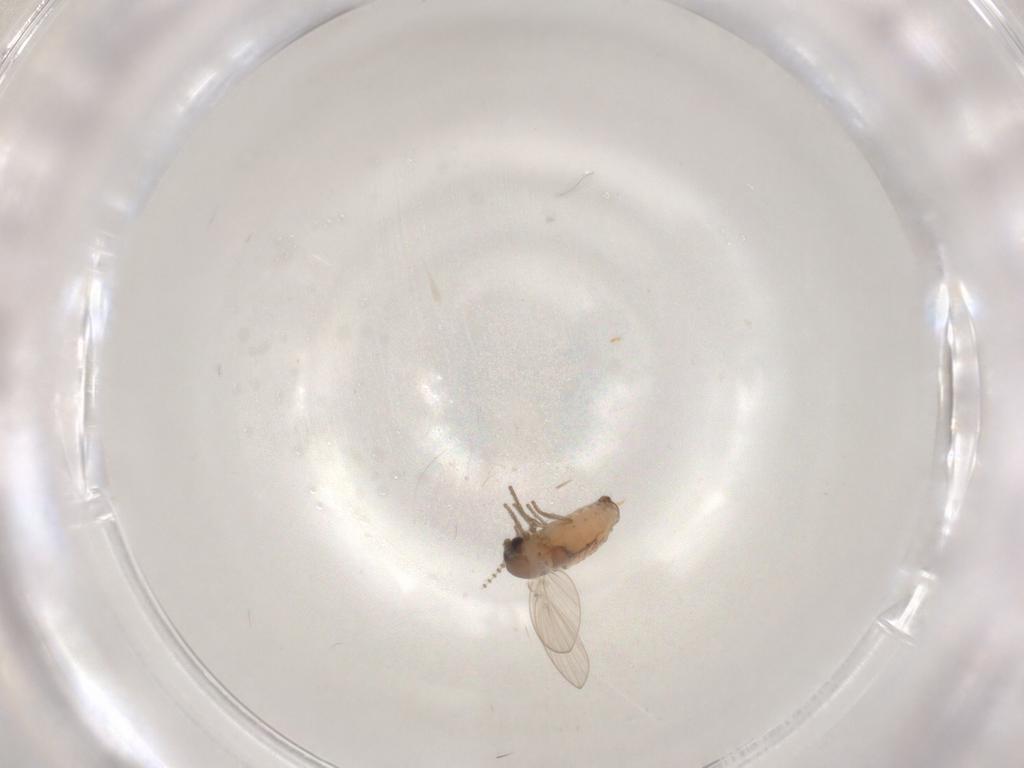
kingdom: Animalia
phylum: Arthropoda
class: Insecta
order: Diptera
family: Psychodidae
